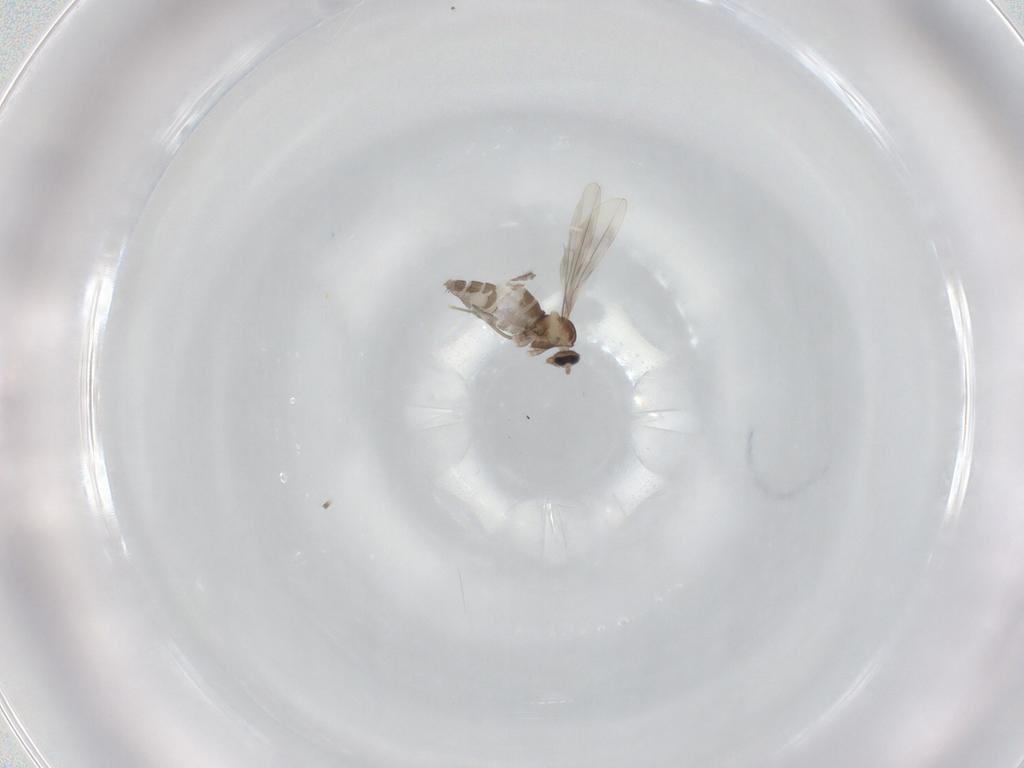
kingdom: Animalia
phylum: Arthropoda
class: Insecta
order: Diptera
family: Cecidomyiidae
